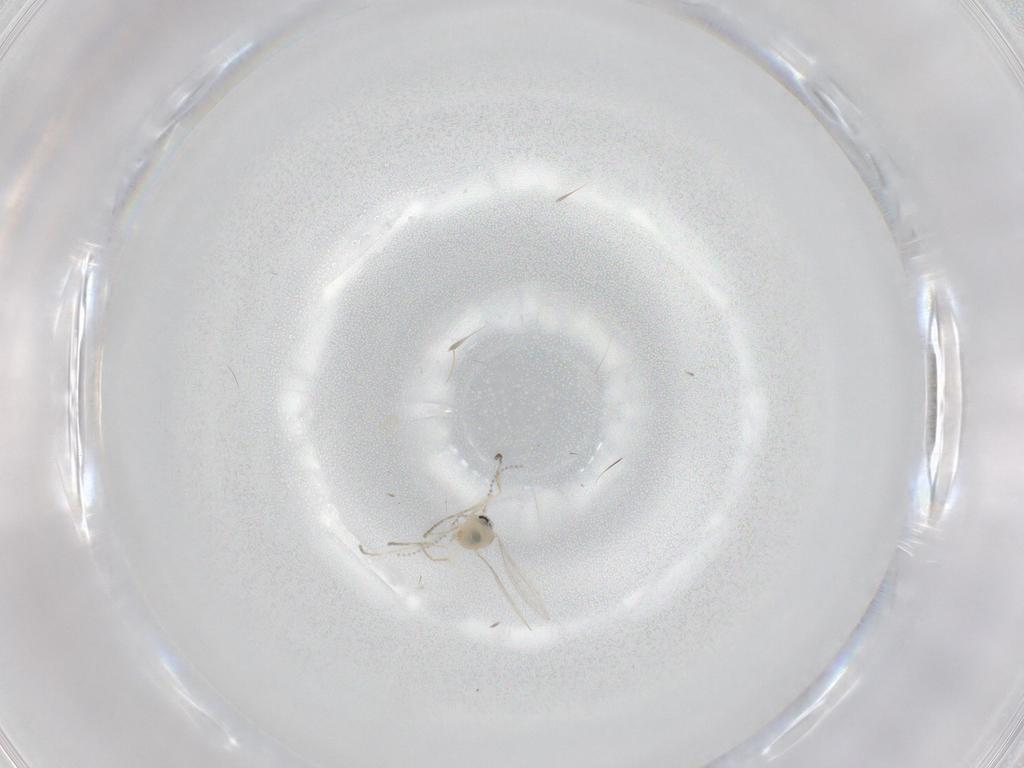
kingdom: Animalia
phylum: Arthropoda
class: Insecta
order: Diptera
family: Cecidomyiidae
